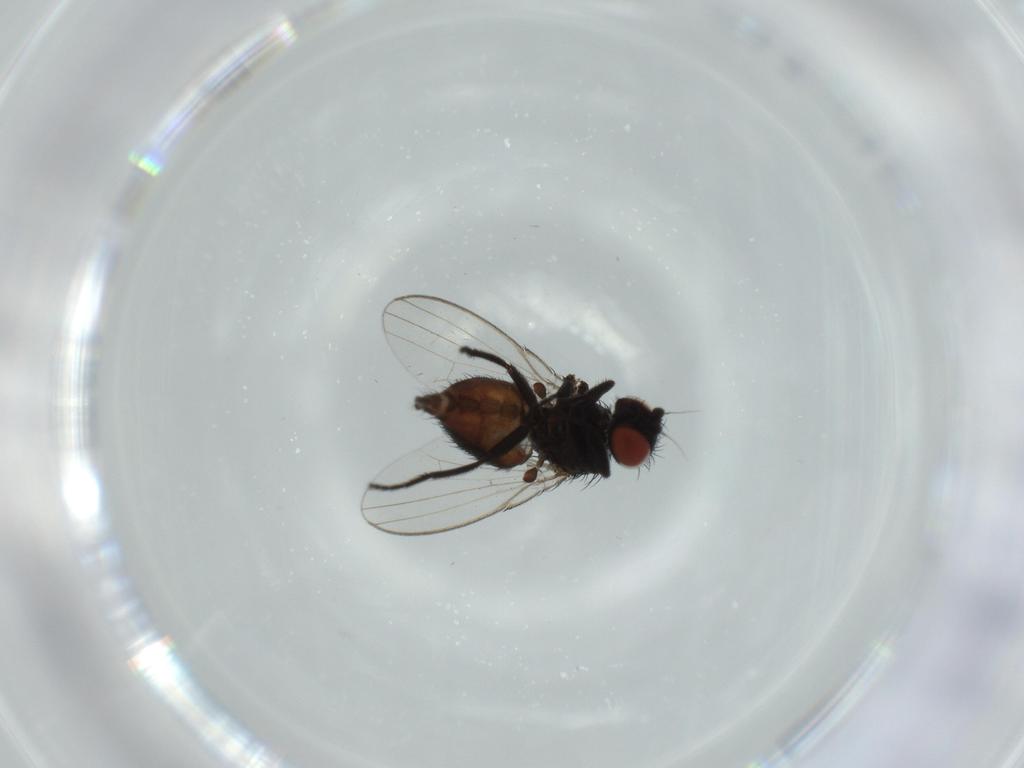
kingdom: Animalia
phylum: Arthropoda
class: Insecta
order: Diptera
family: Milichiidae
